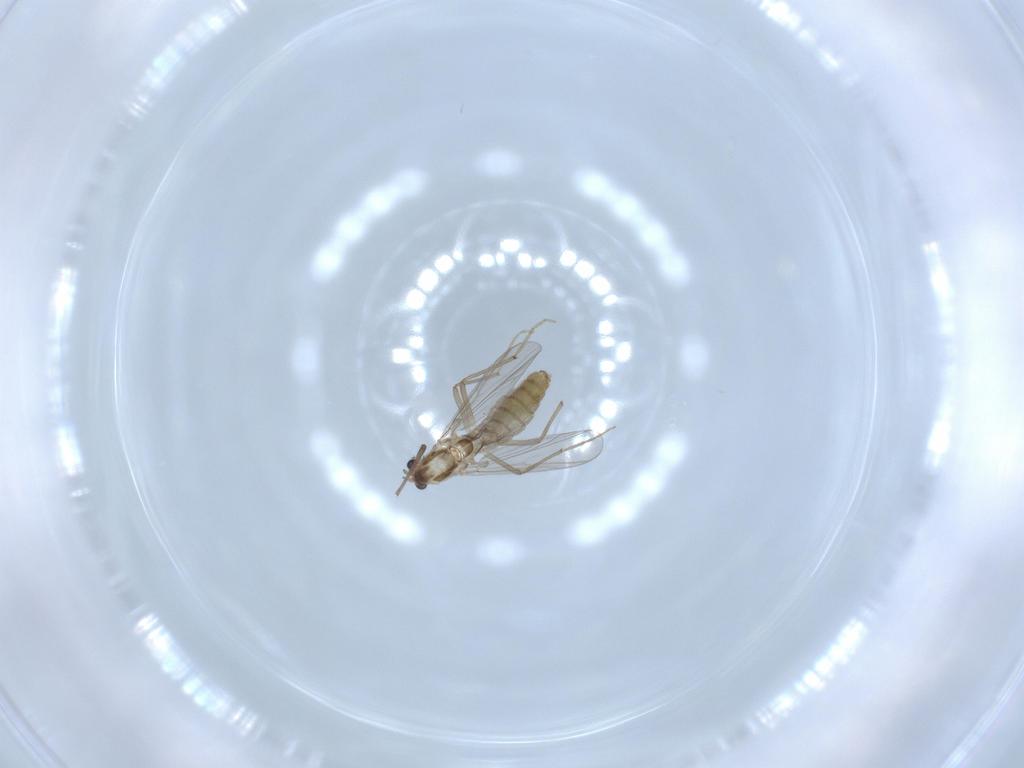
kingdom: Animalia
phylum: Arthropoda
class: Insecta
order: Diptera
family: Chironomidae
